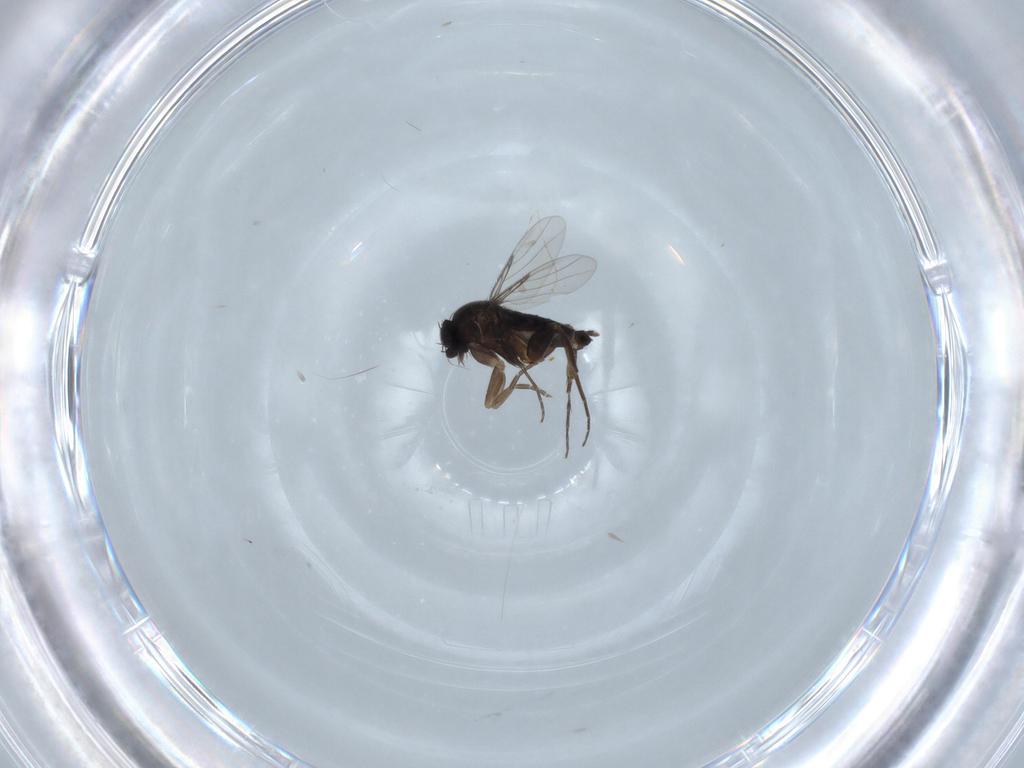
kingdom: Animalia
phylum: Arthropoda
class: Insecta
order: Diptera
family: Phoridae
